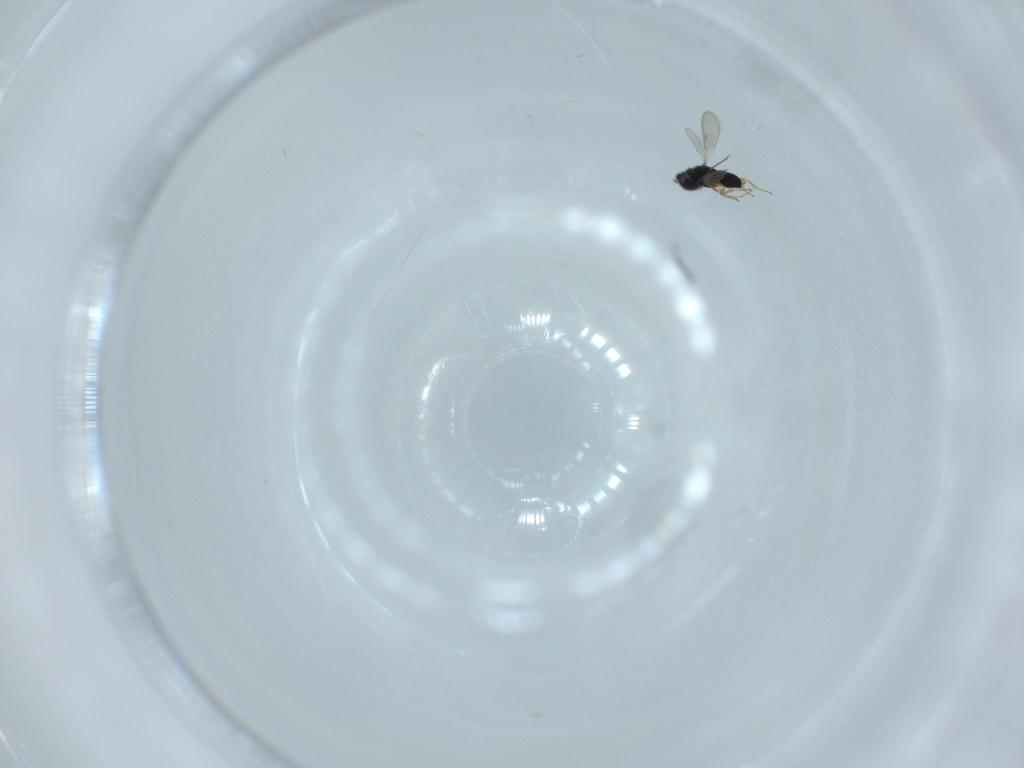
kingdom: Animalia
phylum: Arthropoda
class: Insecta
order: Hymenoptera
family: Scelionidae
